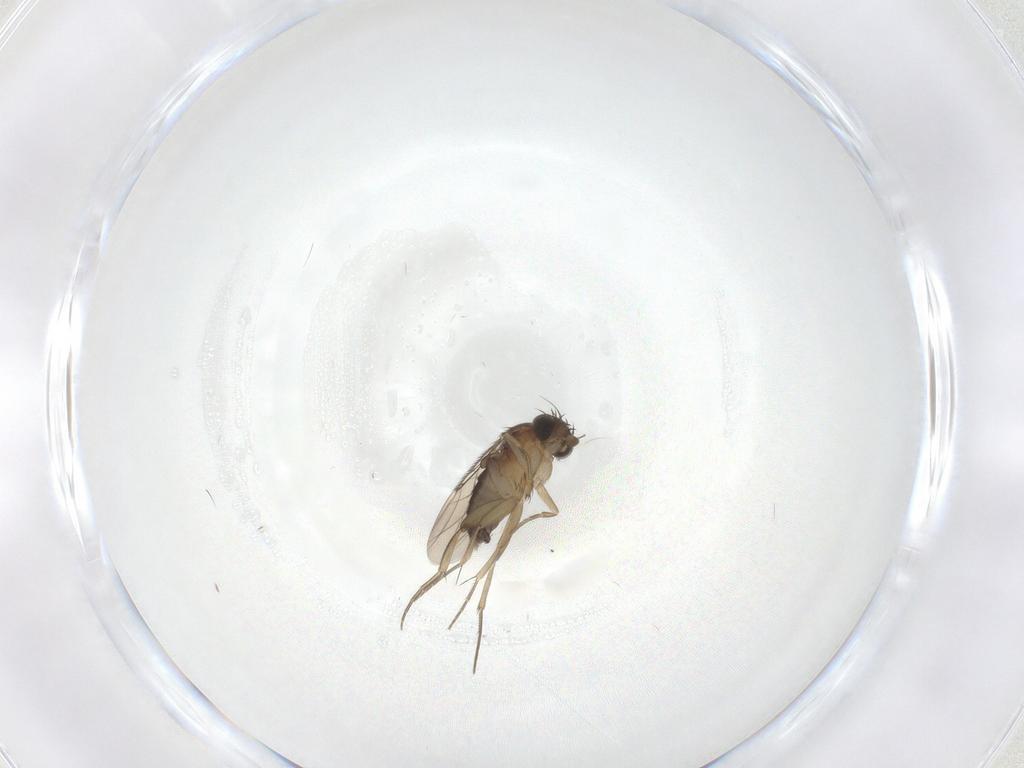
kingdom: Animalia
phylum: Arthropoda
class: Insecta
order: Diptera
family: Phoridae
